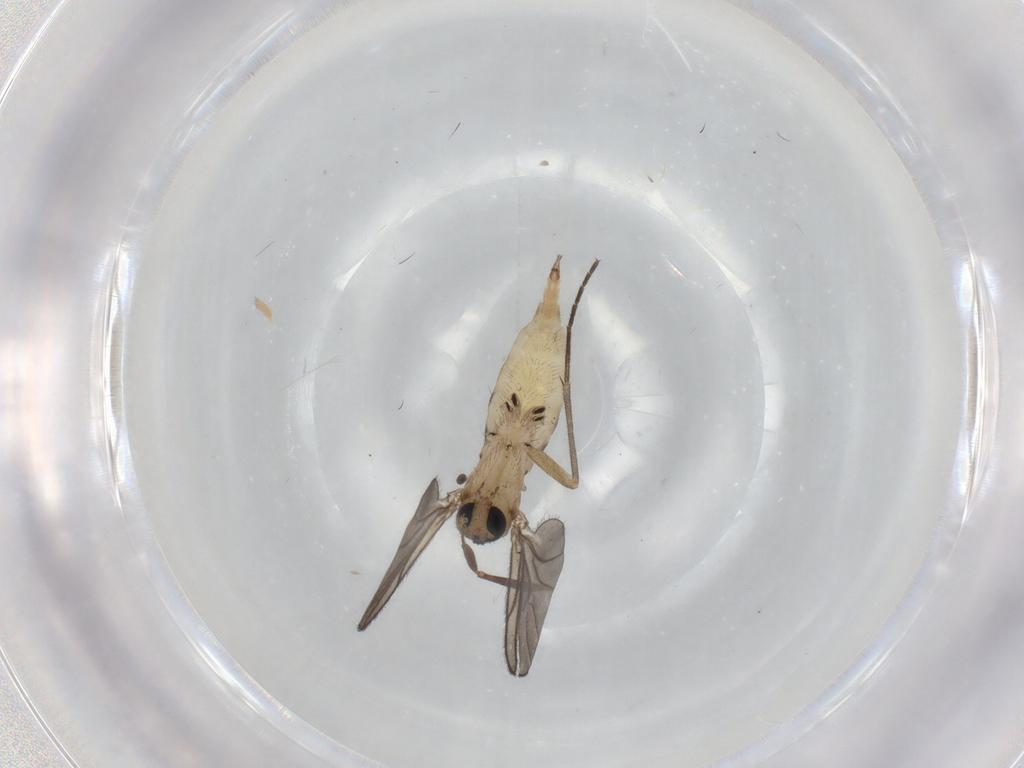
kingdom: Animalia
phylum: Arthropoda
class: Insecta
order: Diptera
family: Sciaridae
